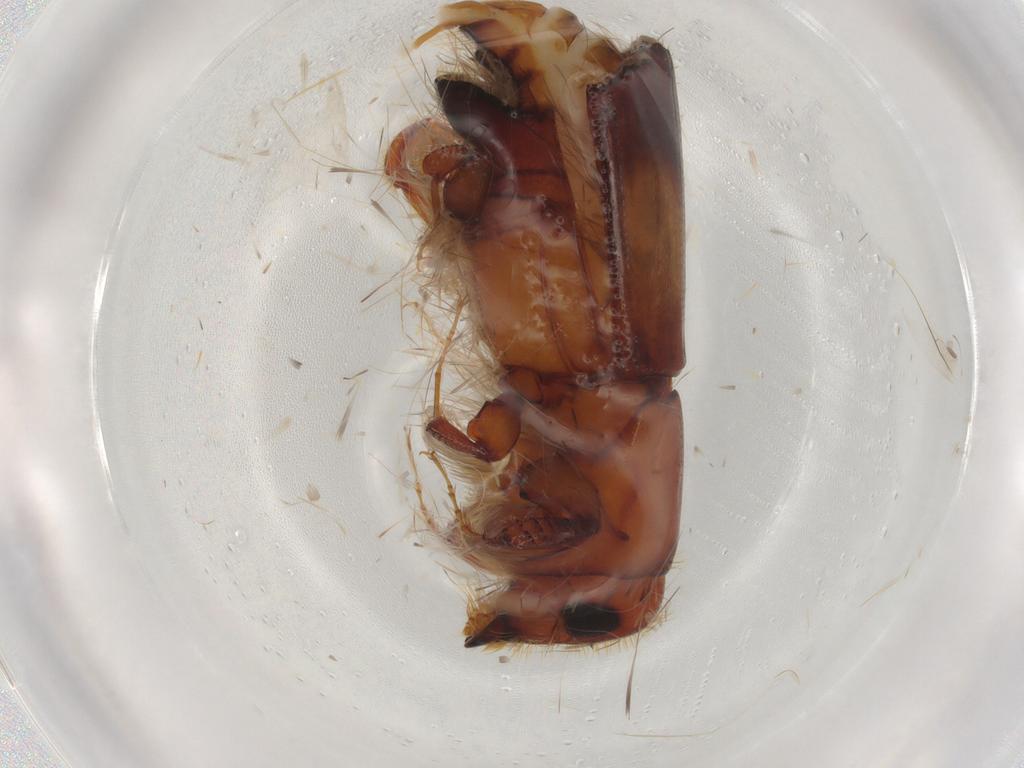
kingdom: Animalia
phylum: Arthropoda
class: Insecta
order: Coleoptera
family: Curculionidae
